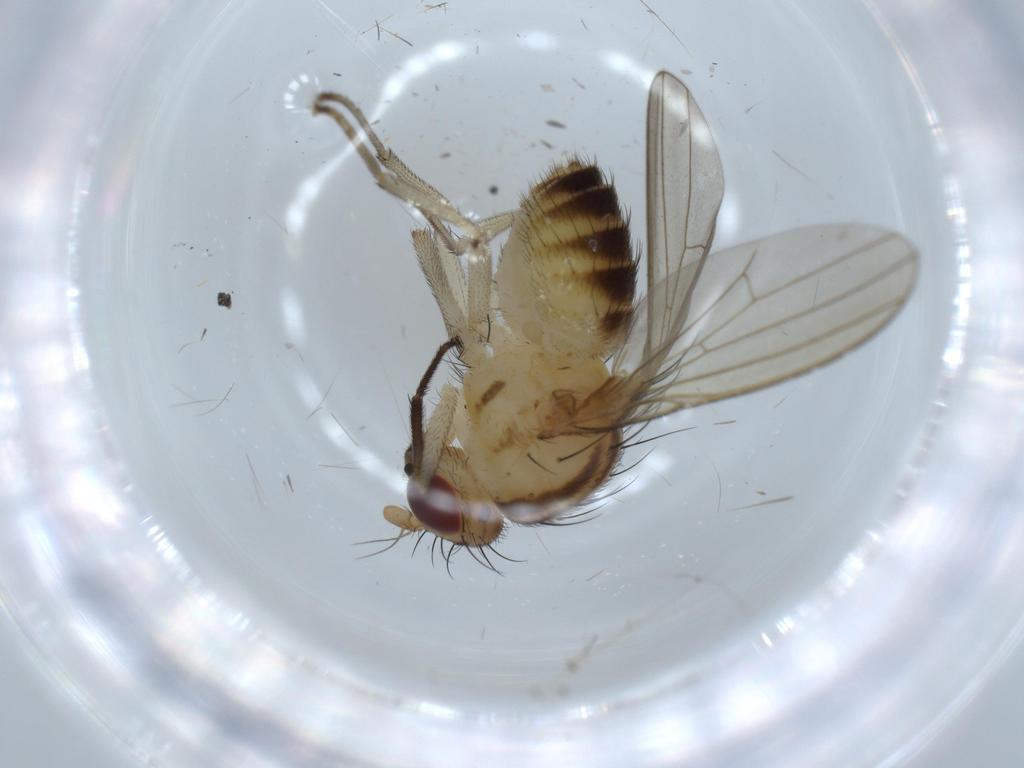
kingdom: Animalia
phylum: Arthropoda
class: Insecta
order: Diptera
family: Lauxaniidae
